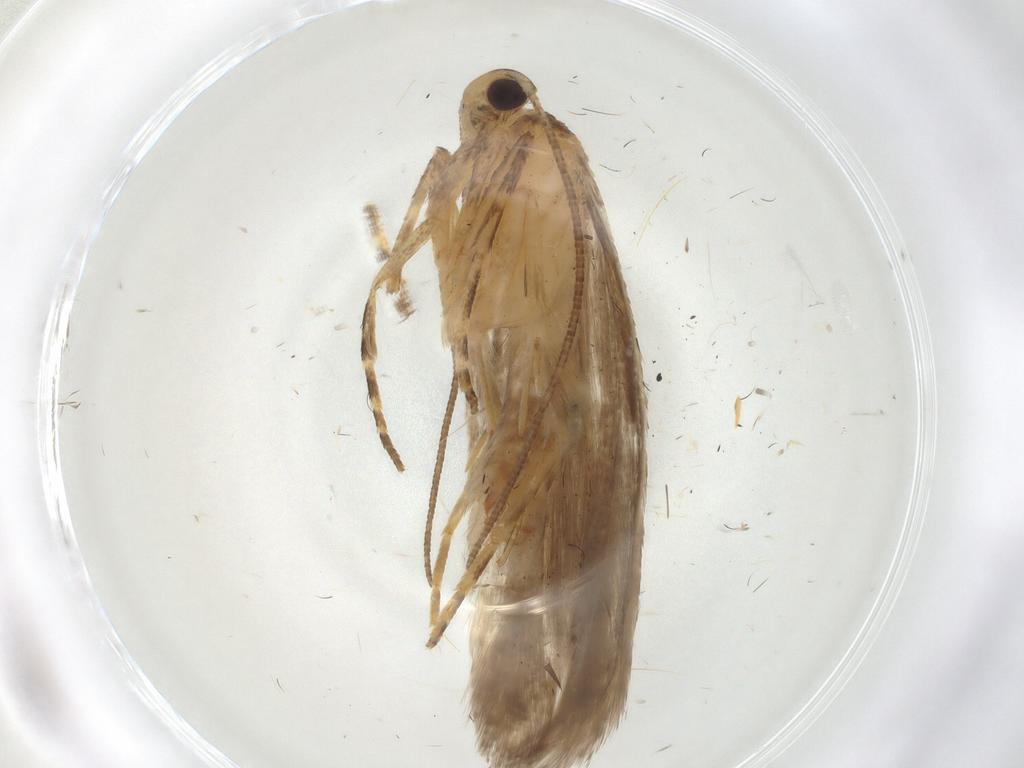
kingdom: Animalia
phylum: Arthropoda
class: Insecta
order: Lepidoptera
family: Gelechiidae
